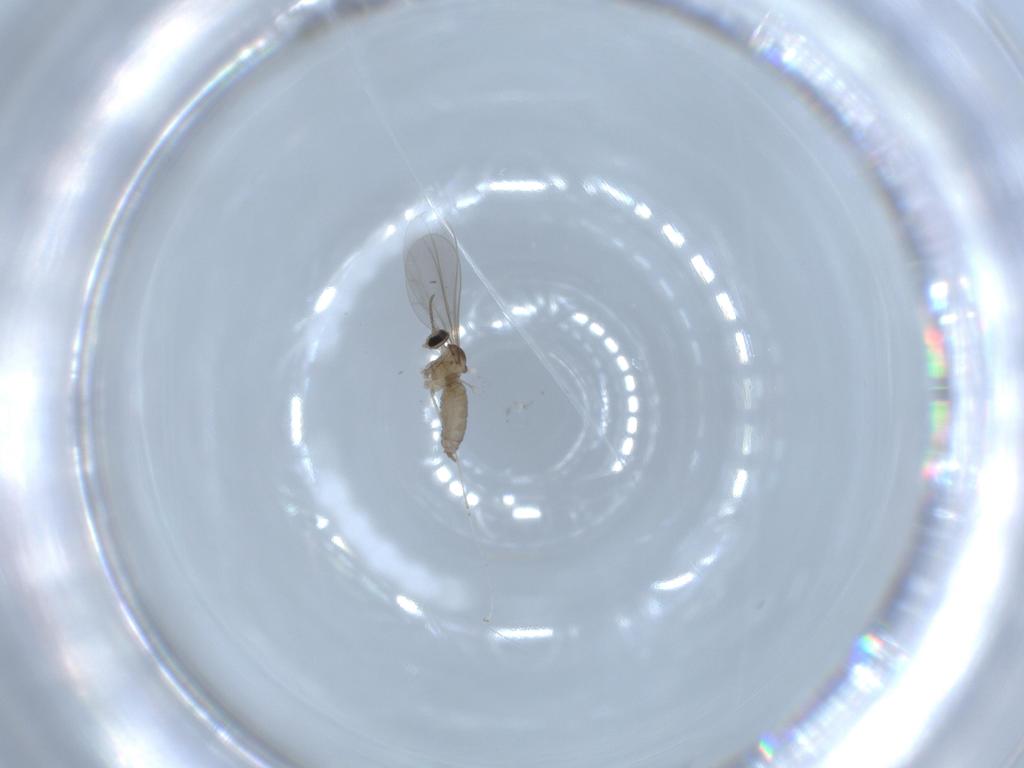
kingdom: Animalia
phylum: Arthropoda
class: Insecta
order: Diptera
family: Cecidomyiidae
